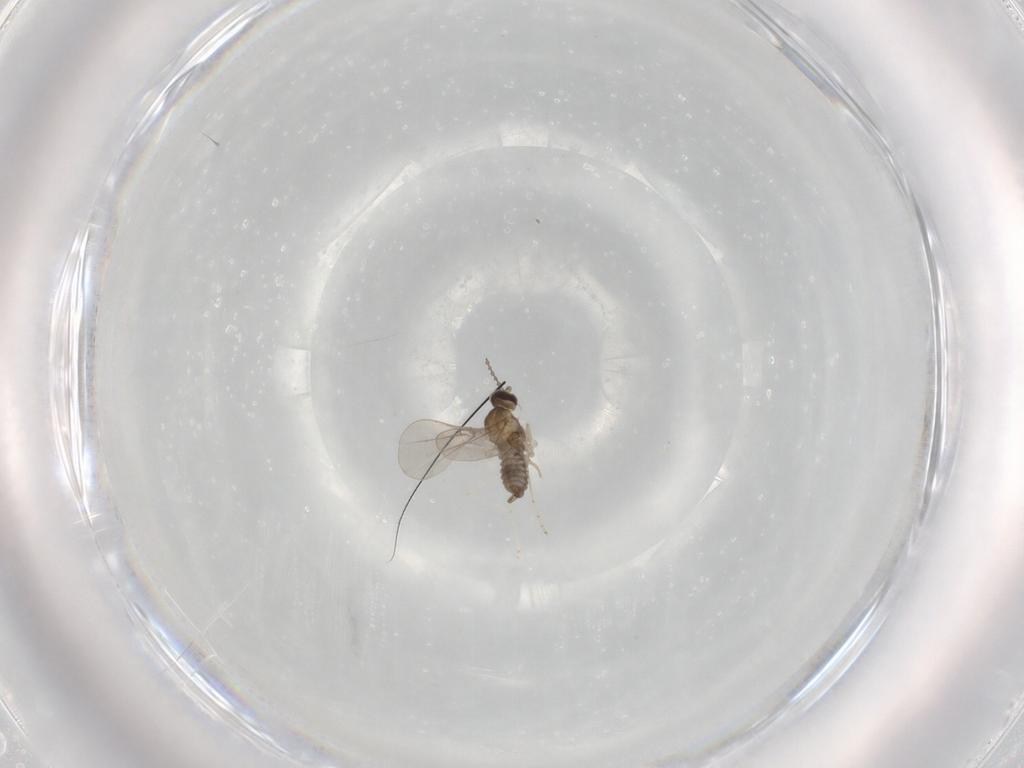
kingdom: Animalia
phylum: Arthropoda
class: Insecta
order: Diptera
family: Asilidae
